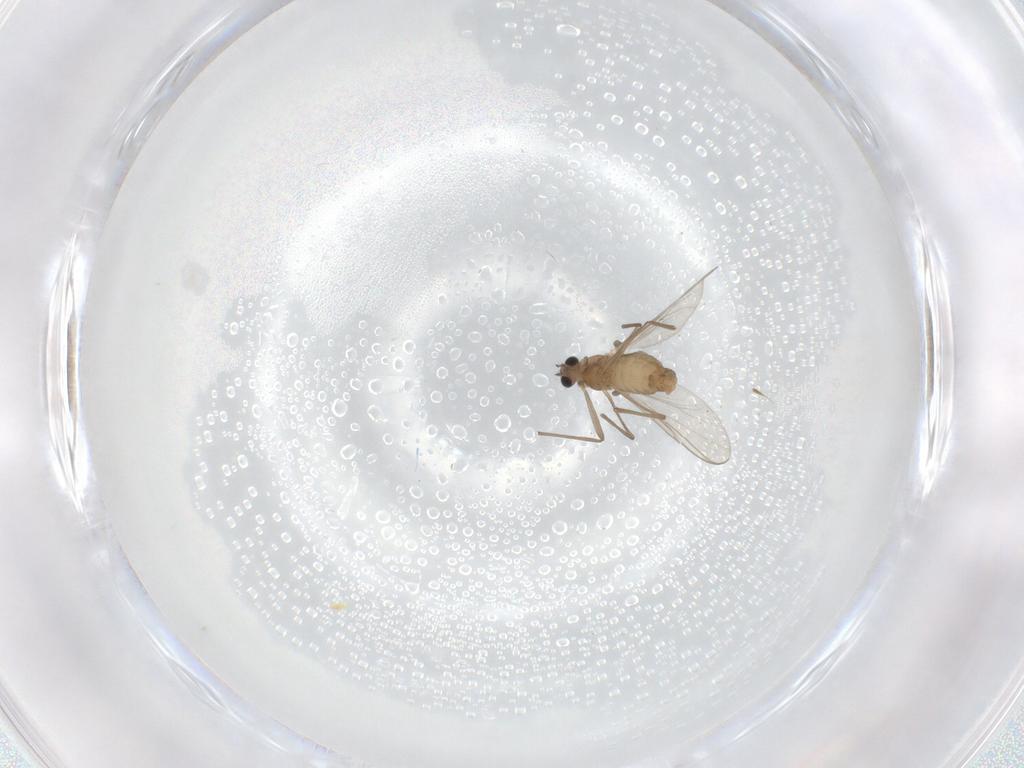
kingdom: Animalia
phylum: Arthropoda
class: Insecta
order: Diptera
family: Chironomidae
